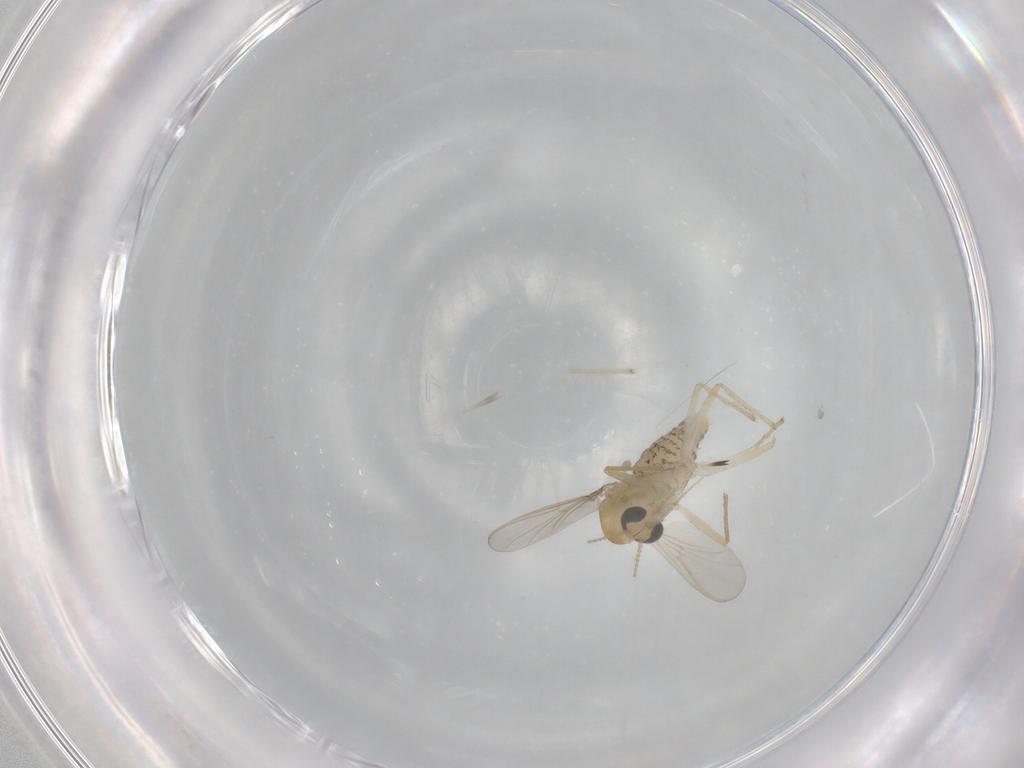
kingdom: Animalia
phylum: Arthropoda
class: Insecta
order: Diptera
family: Chironomidae
